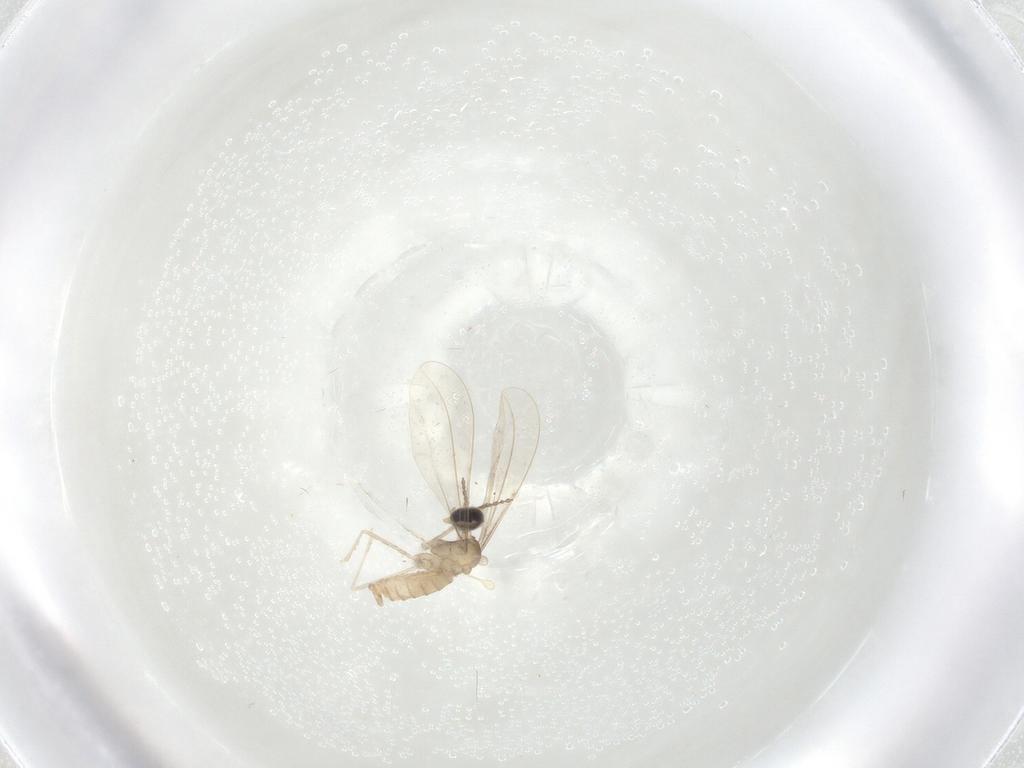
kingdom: Animalia
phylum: Arthropoda
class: Insecta
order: Diptera
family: Cecidomyiidae
